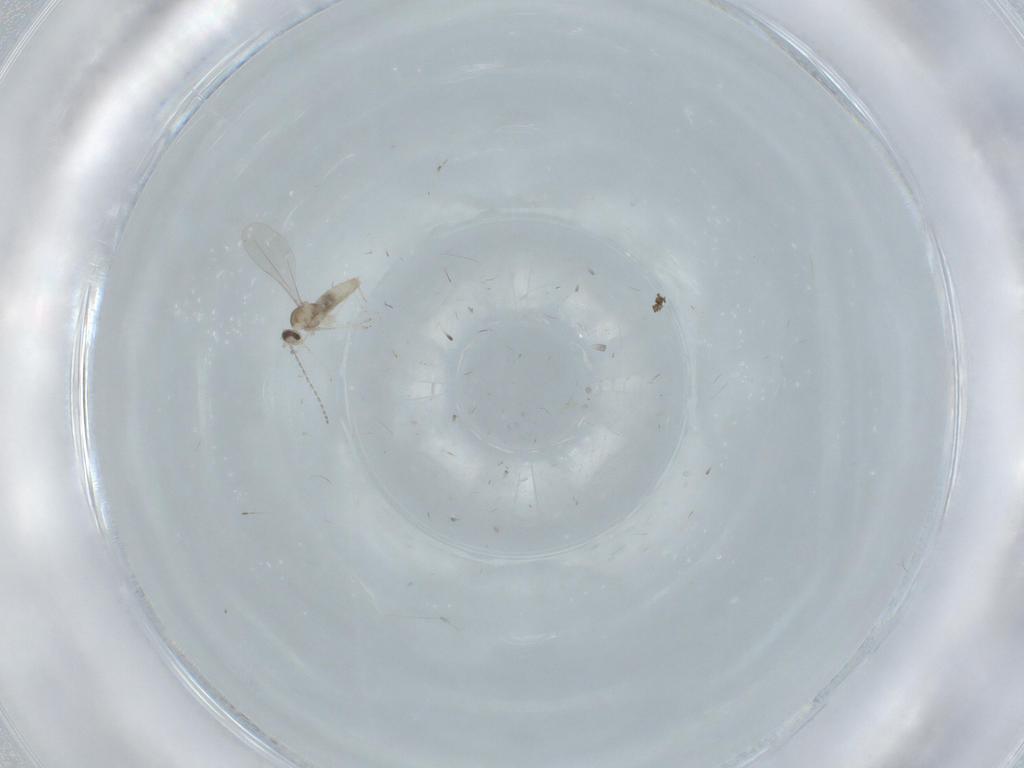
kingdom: Animalia
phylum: Arthropoda
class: Insecta
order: Diptera
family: Cecidomyiidae
